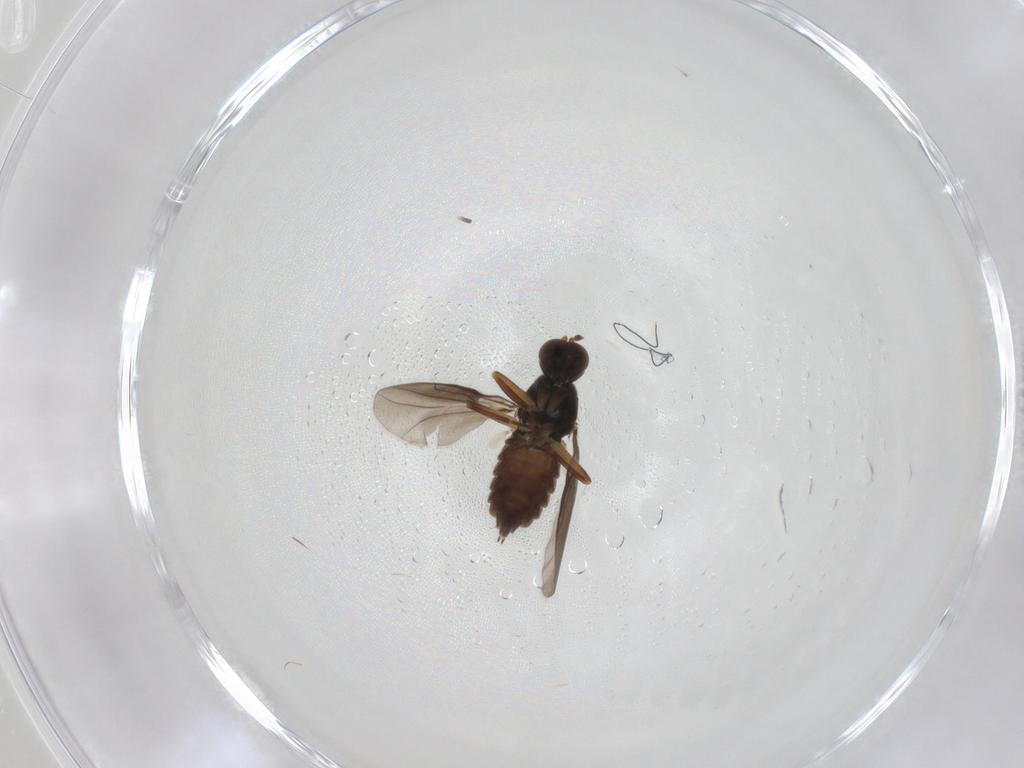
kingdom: Animalia
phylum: Arthropoda
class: Insecta
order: Diptera
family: Hybotidae
